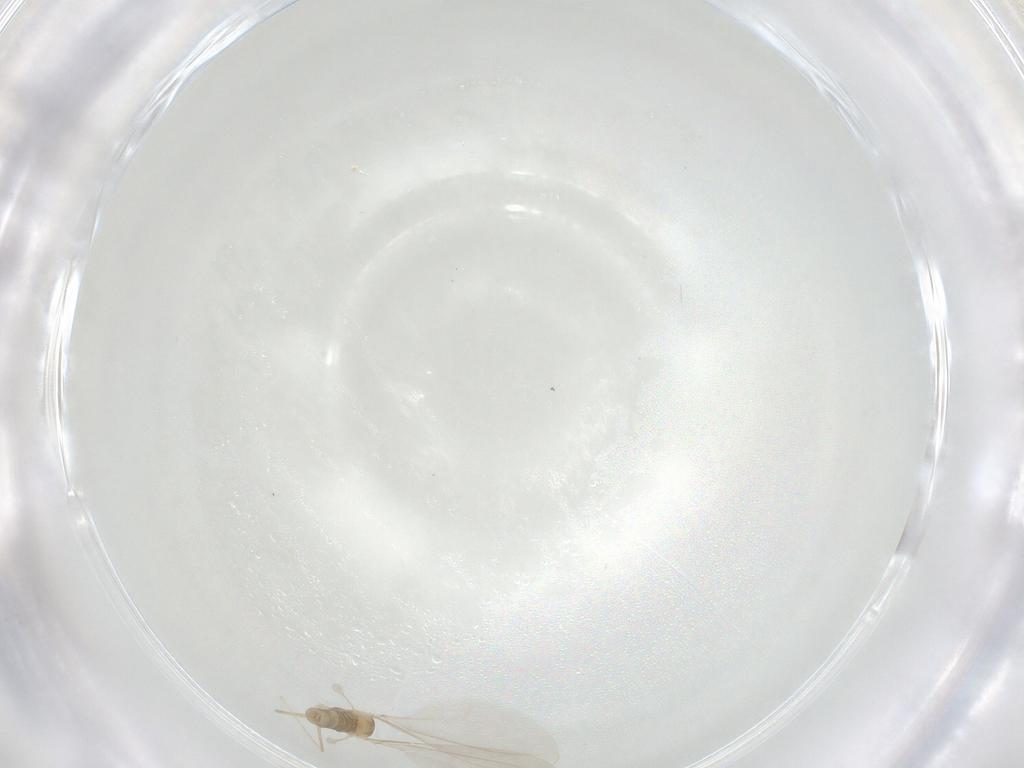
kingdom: Animalia
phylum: Arthropoda
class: Insecta
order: Diptera
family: Cecidomyiidae
